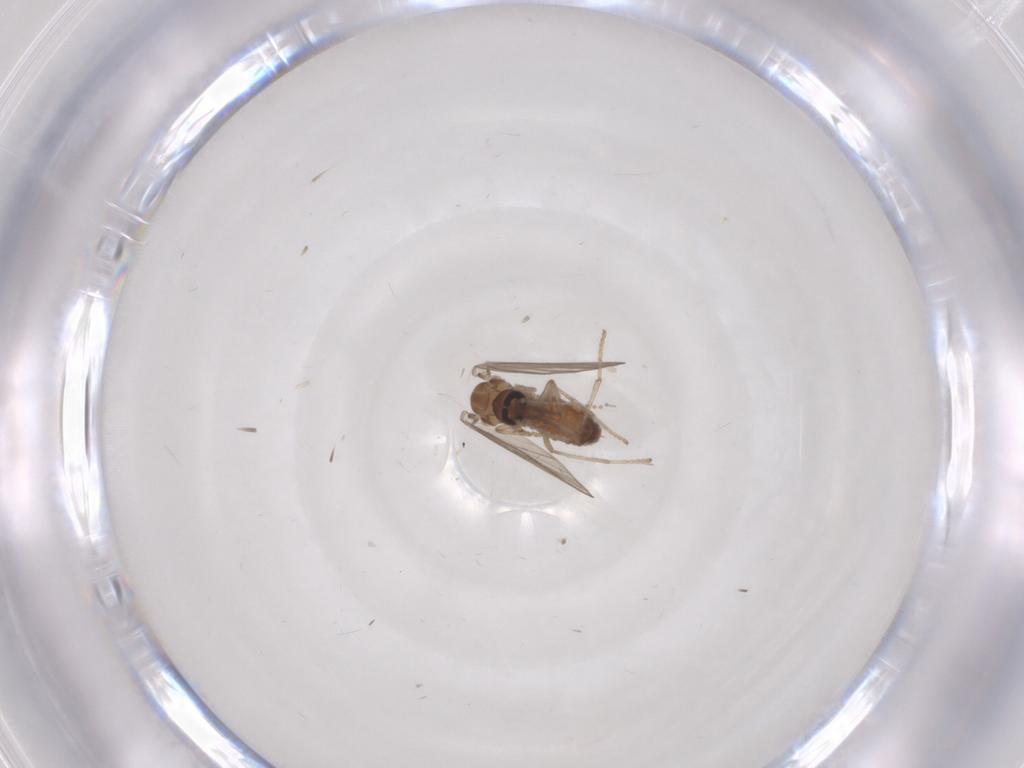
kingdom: Animalia
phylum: Arthropoda
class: Insecta
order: Diptera
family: Psychodidae
